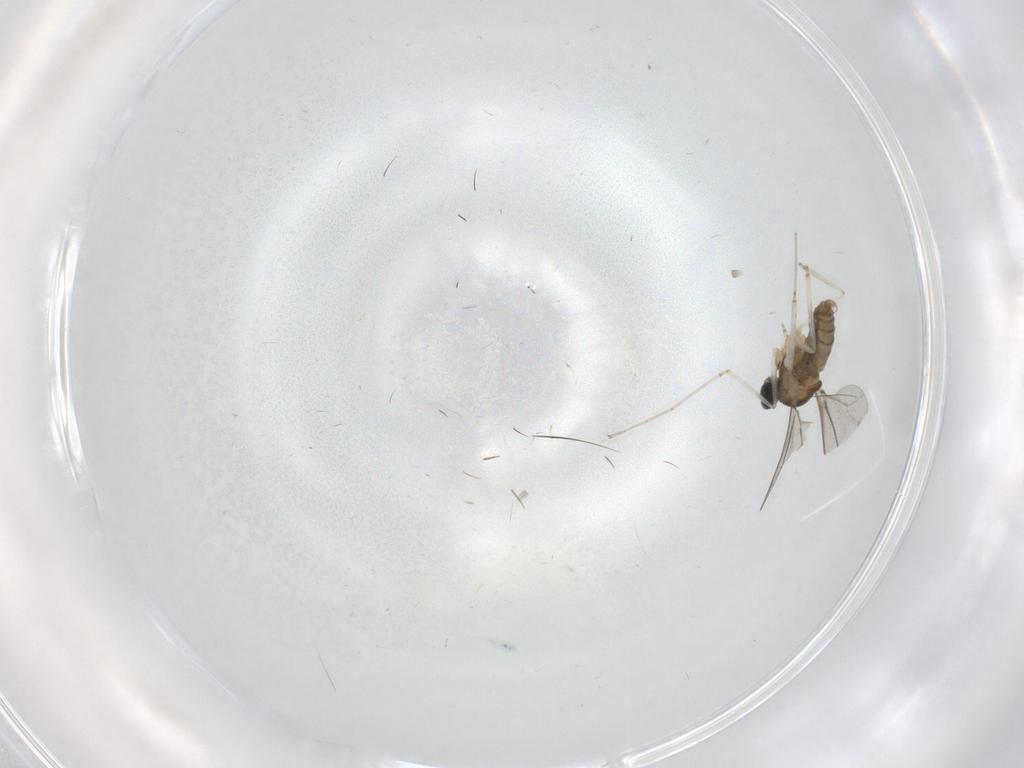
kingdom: Animalia
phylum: Arthropoda
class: Insecta
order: Diptera
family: Cecidomyiidae
